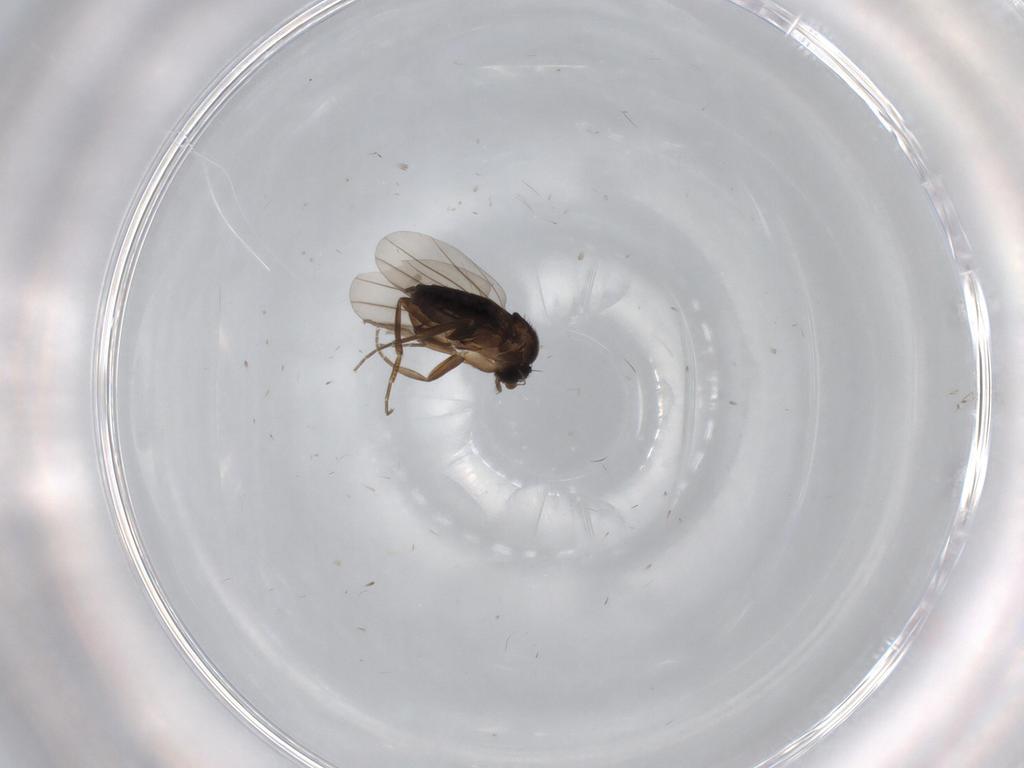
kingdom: Animalia
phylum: Arthropoda
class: Insecta
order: Diptera
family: Phoridae
